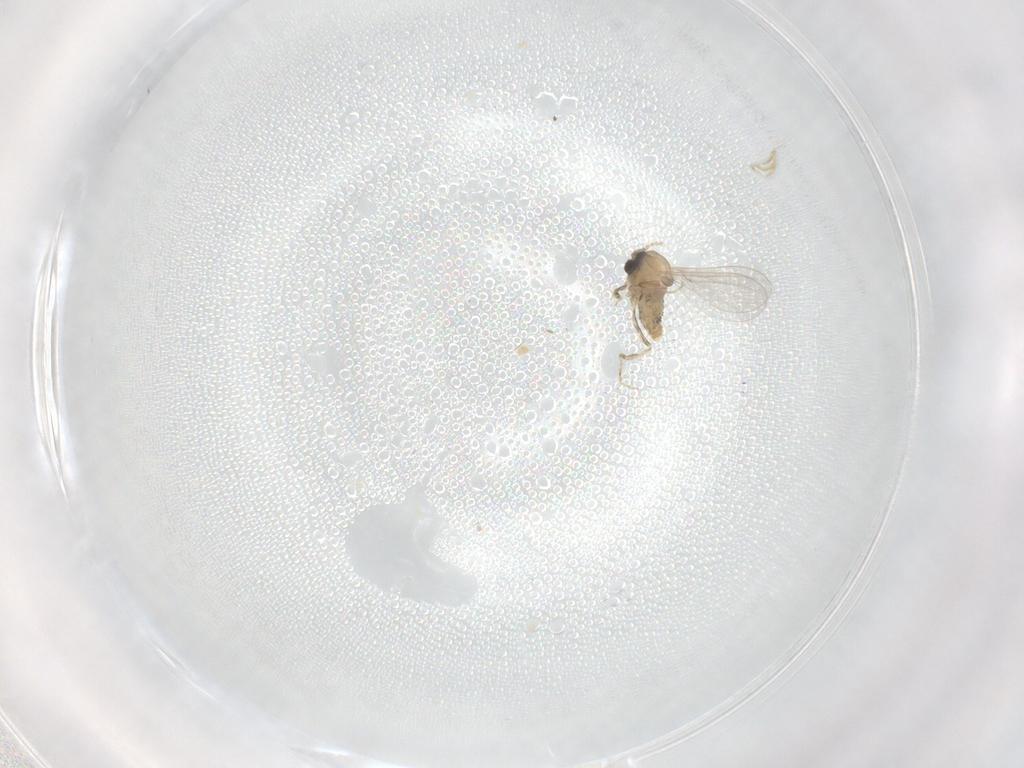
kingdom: Animalia
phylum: Arthropoda
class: Insecta
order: Diptera
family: Cecidomyiidae
